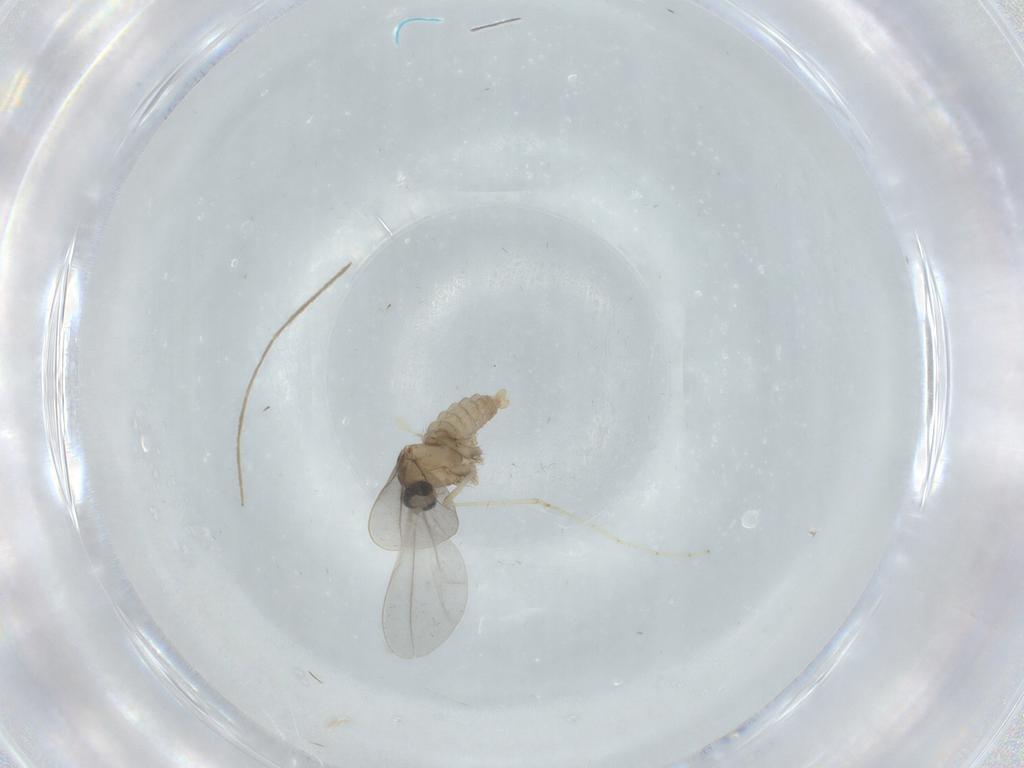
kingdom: Animalia
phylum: Arthropoda
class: Insecta
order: Diptera
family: Cecidomyiidae
